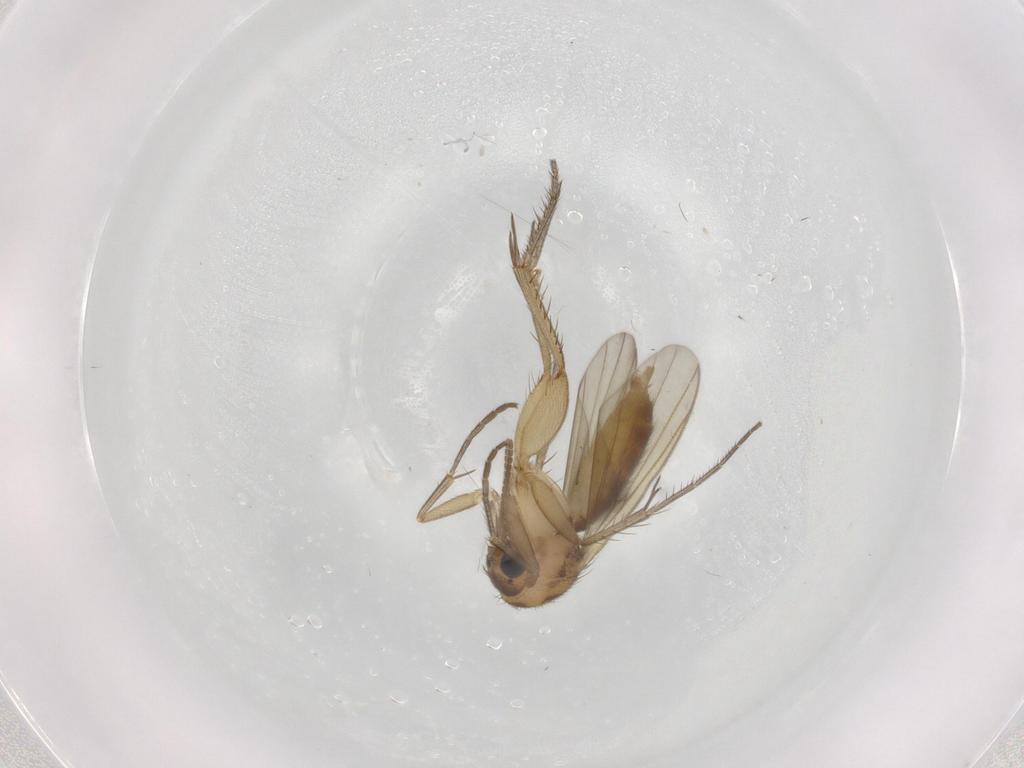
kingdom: Animalia
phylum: Arthropoda
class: Insecta
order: Diptera
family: Mycetophilidae
